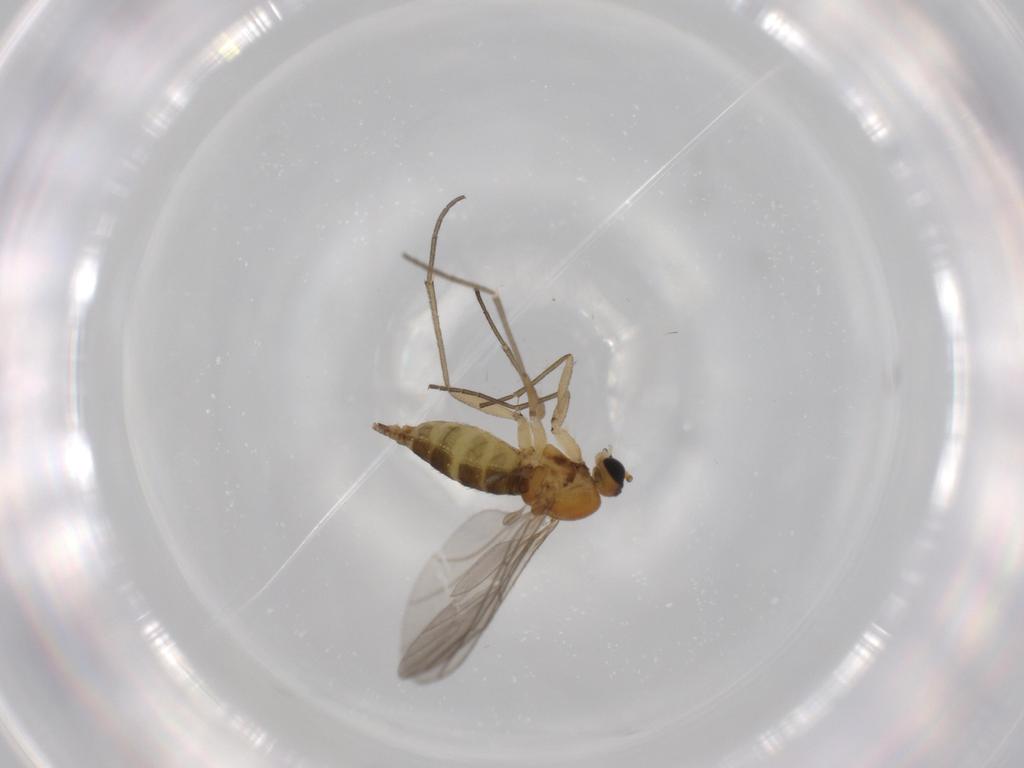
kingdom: Animalia
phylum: Arthropoda
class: Insecta
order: Diptera
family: Sciaridae
